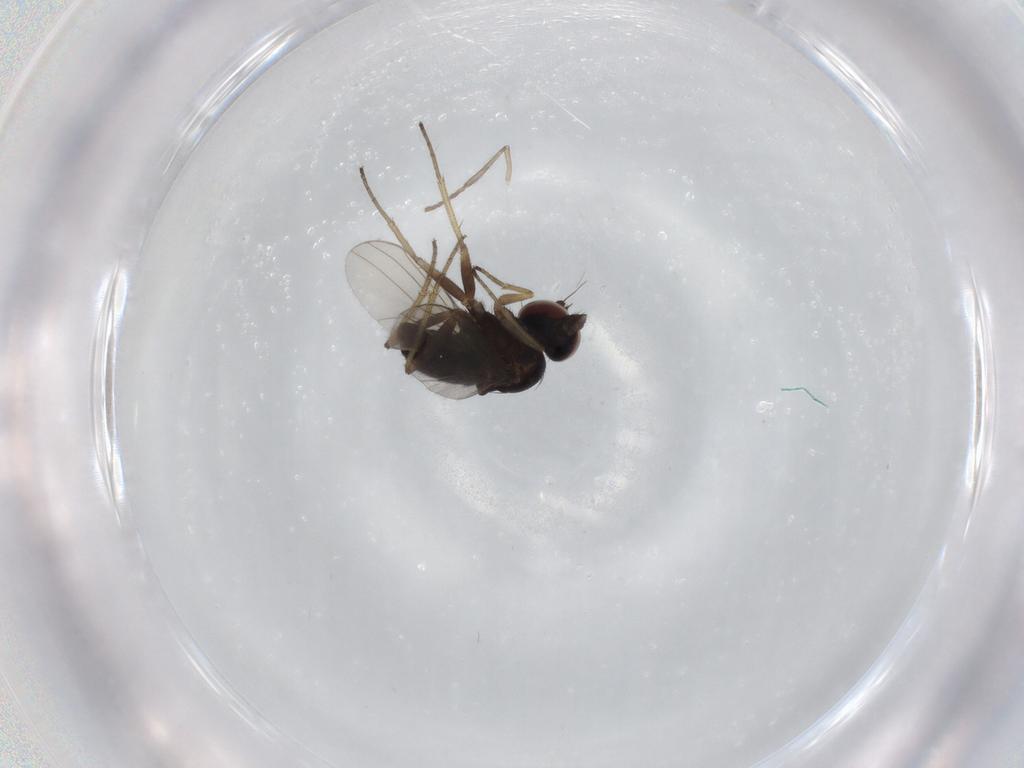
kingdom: Animalia
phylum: Arthropoda
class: Insecta
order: Diptera
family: Dolichopodidae
